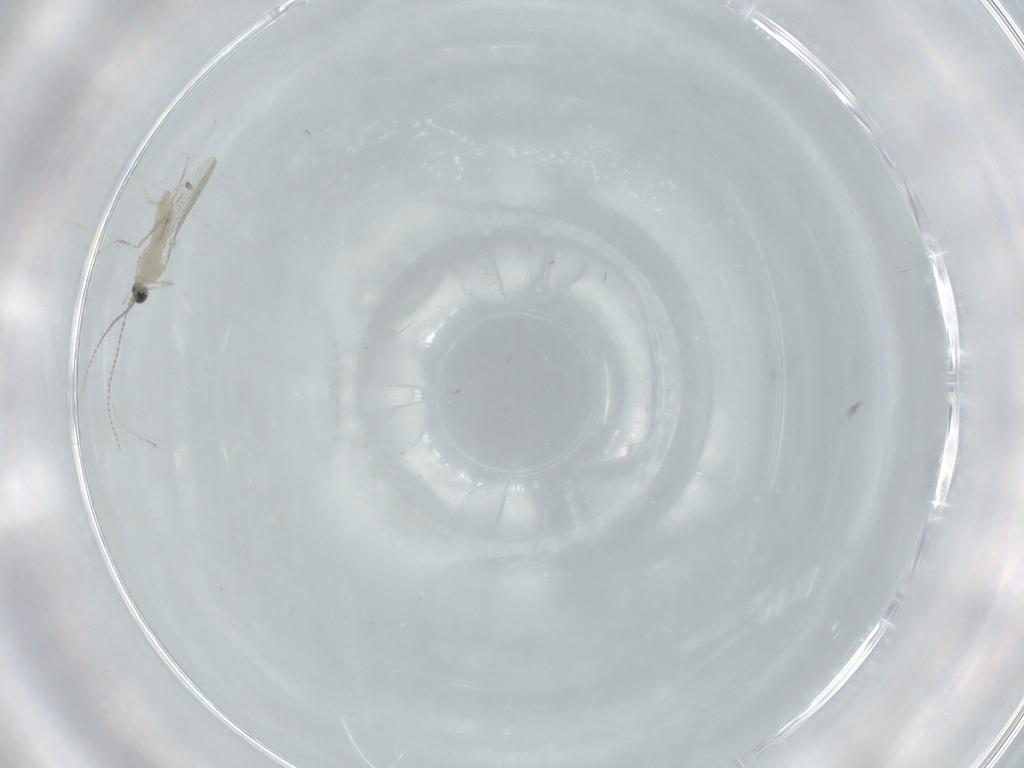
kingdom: Animalia
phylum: Arthropoda
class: Insecta
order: Diptera
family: Cecidomyiidae
